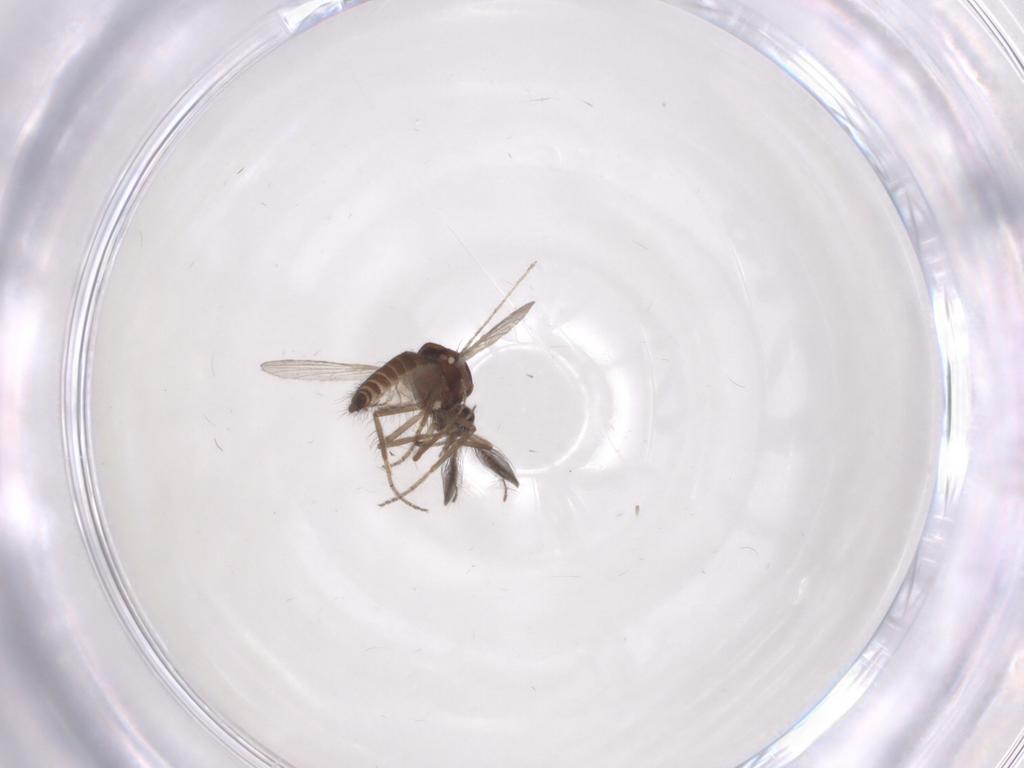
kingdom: Animalia
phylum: Arthropoda
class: Insecta
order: Diptera
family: Ceratopogonidae
